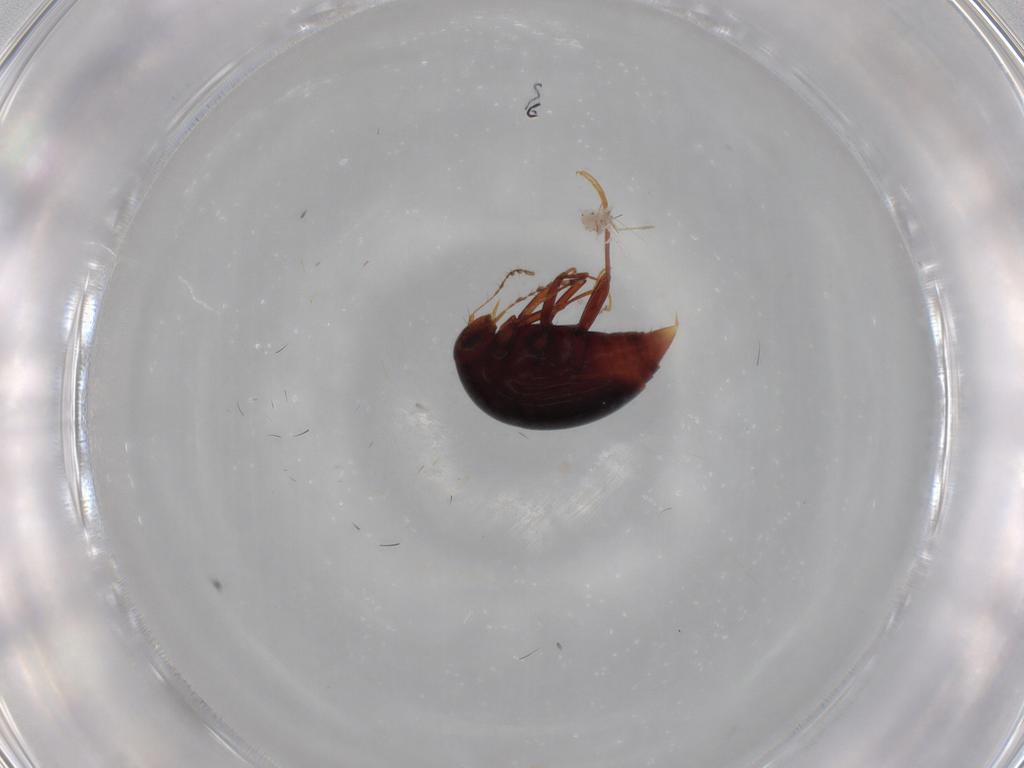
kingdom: Animalia
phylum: Arthropoda
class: Insecta
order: Coleoptera
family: Staphylinidae
